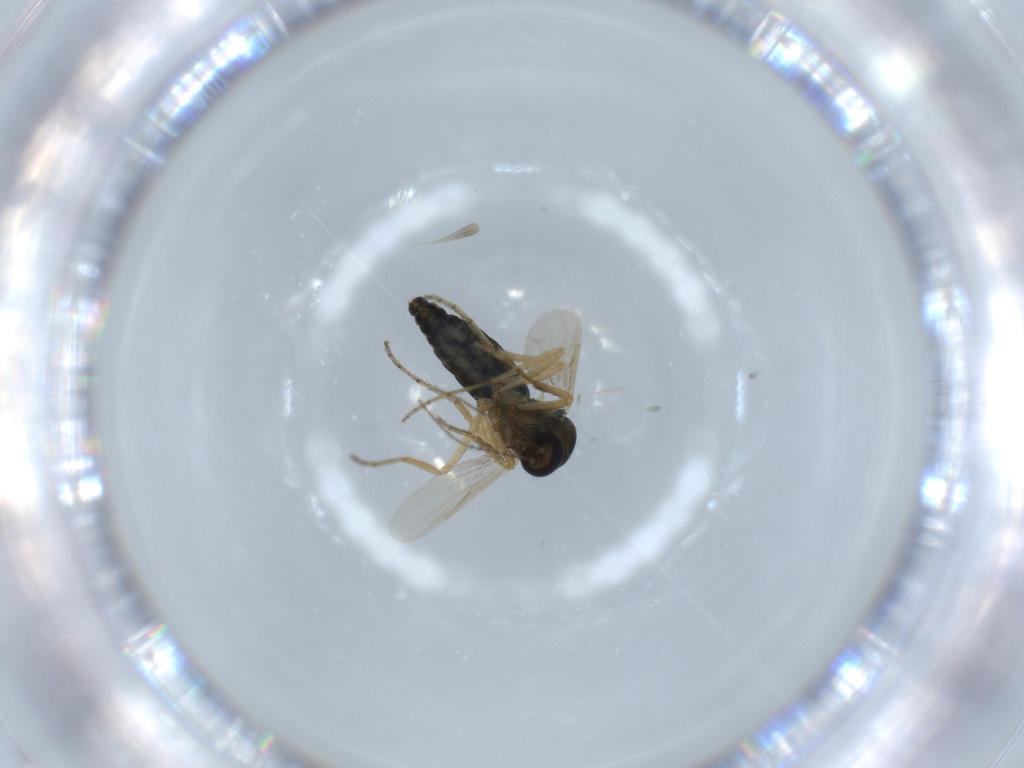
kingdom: Animalia
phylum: Arthropoda
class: Insecta
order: Diptera
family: Ceratopogonidae
